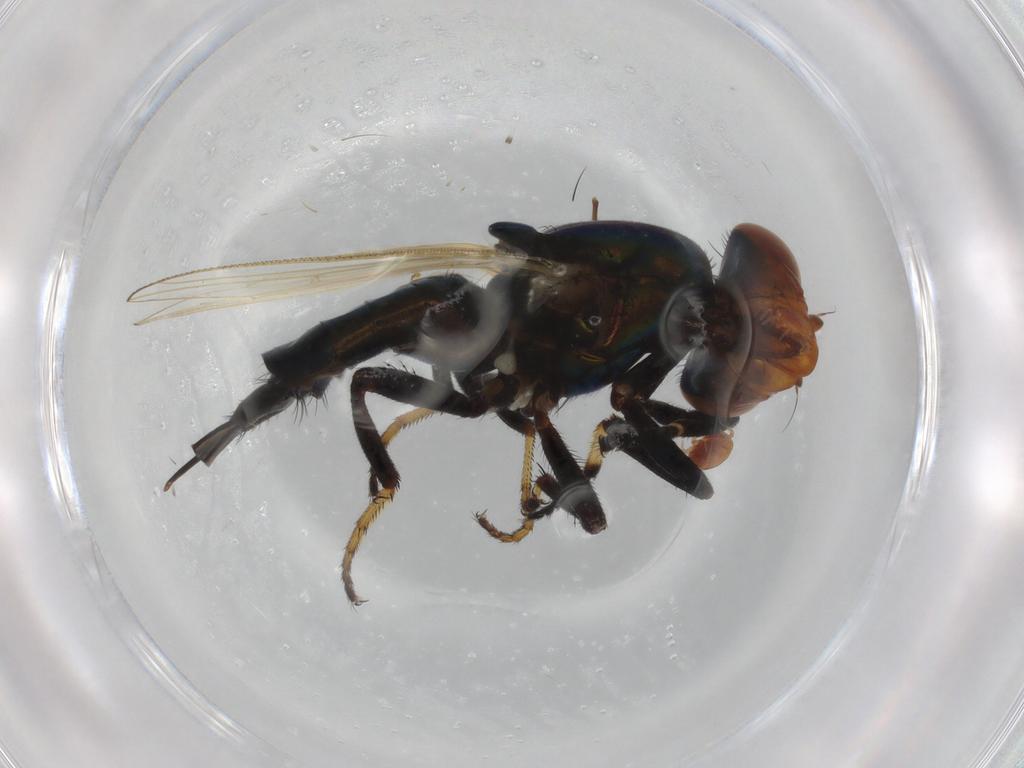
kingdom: Animalia
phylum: Arthropoda
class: Insecta
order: Diptera
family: Ulidiidae
